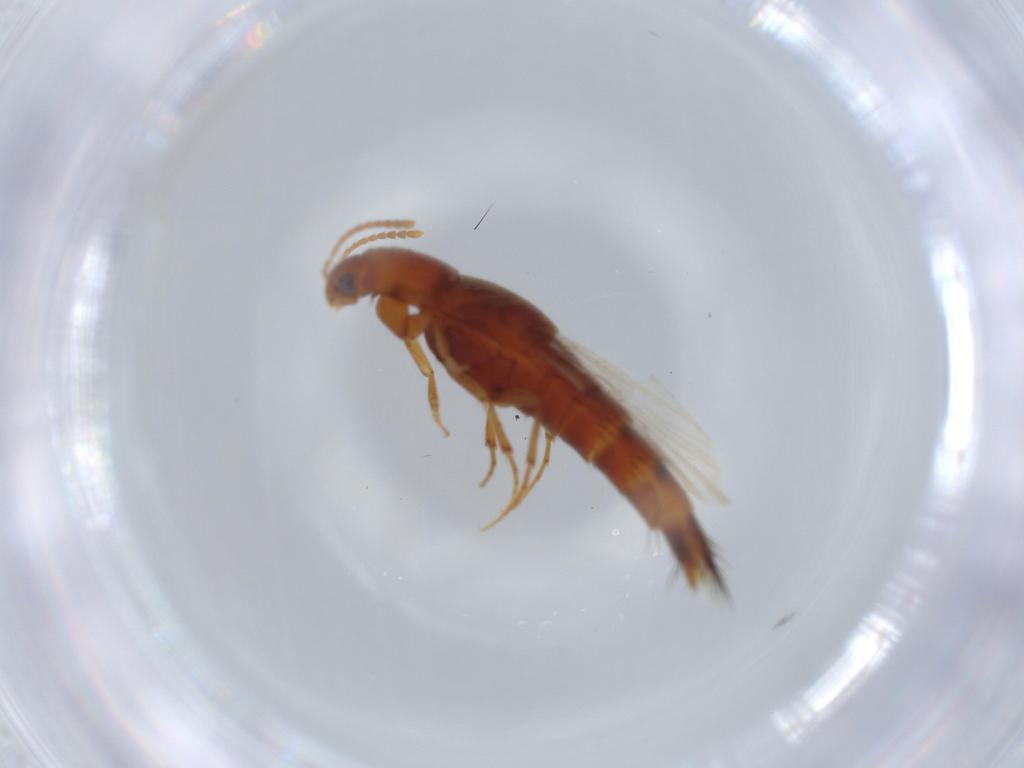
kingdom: Animalia
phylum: Arthropoda
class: Insecta
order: Coleoptera
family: Staphylinidae
